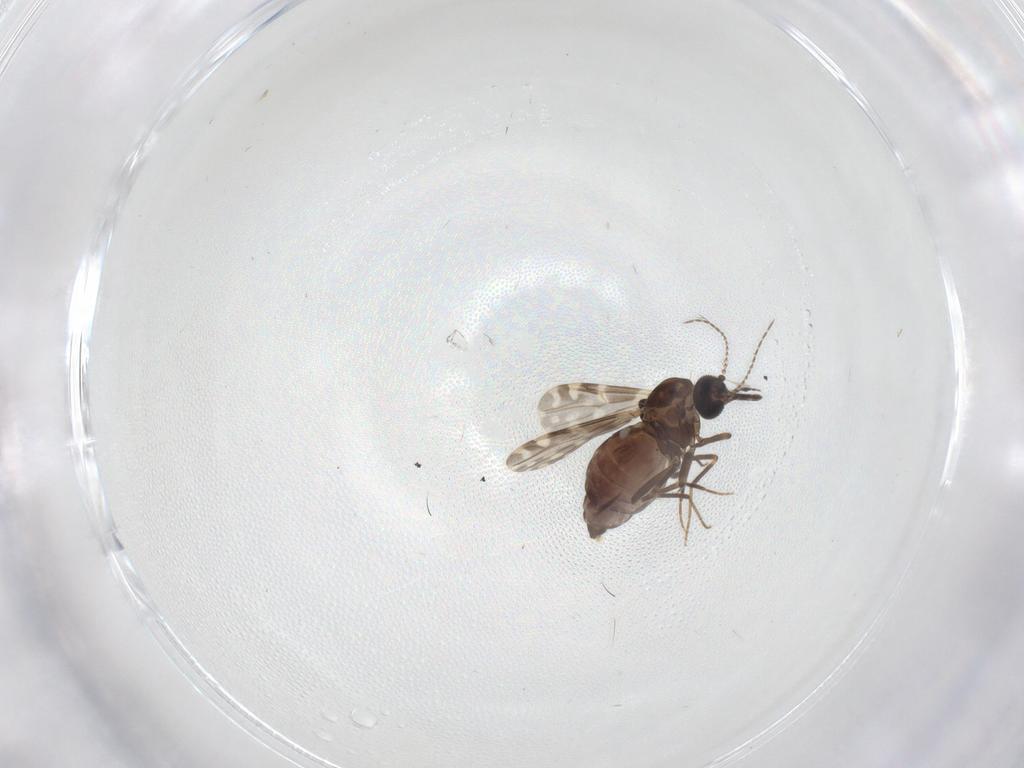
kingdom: Animalia
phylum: Arthropoda
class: Insecta
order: Diptera
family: Ceratopogonidae
